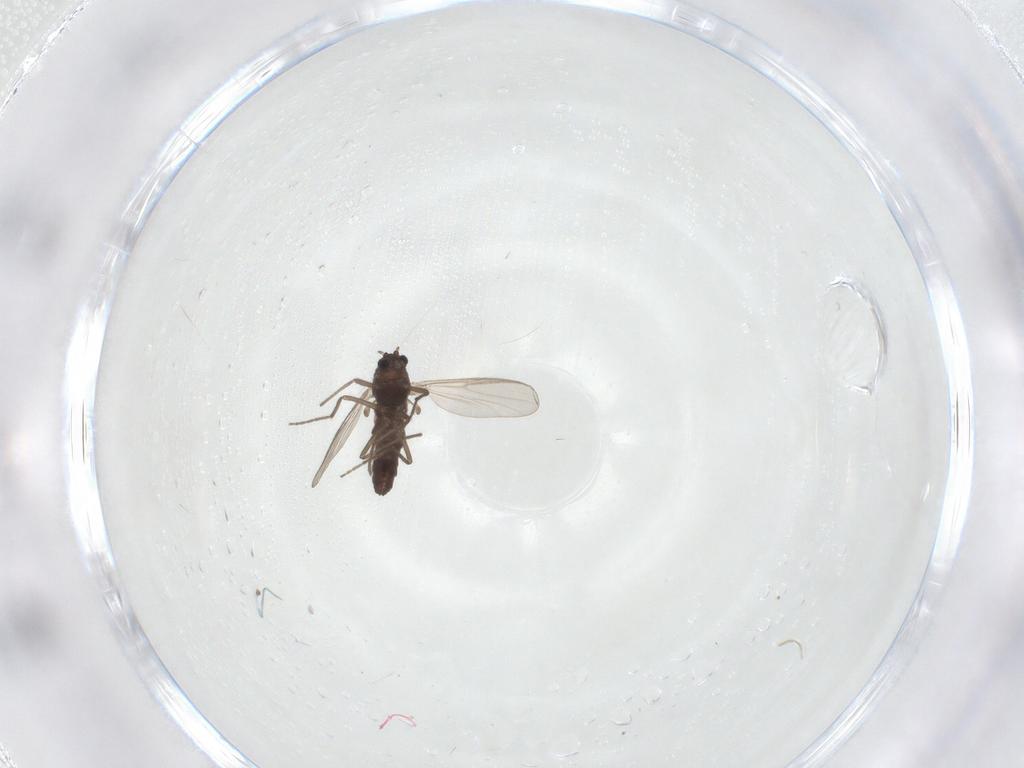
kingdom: Animalia
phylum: Arthropoda
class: Insecta
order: Diptera
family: Chironomidae
